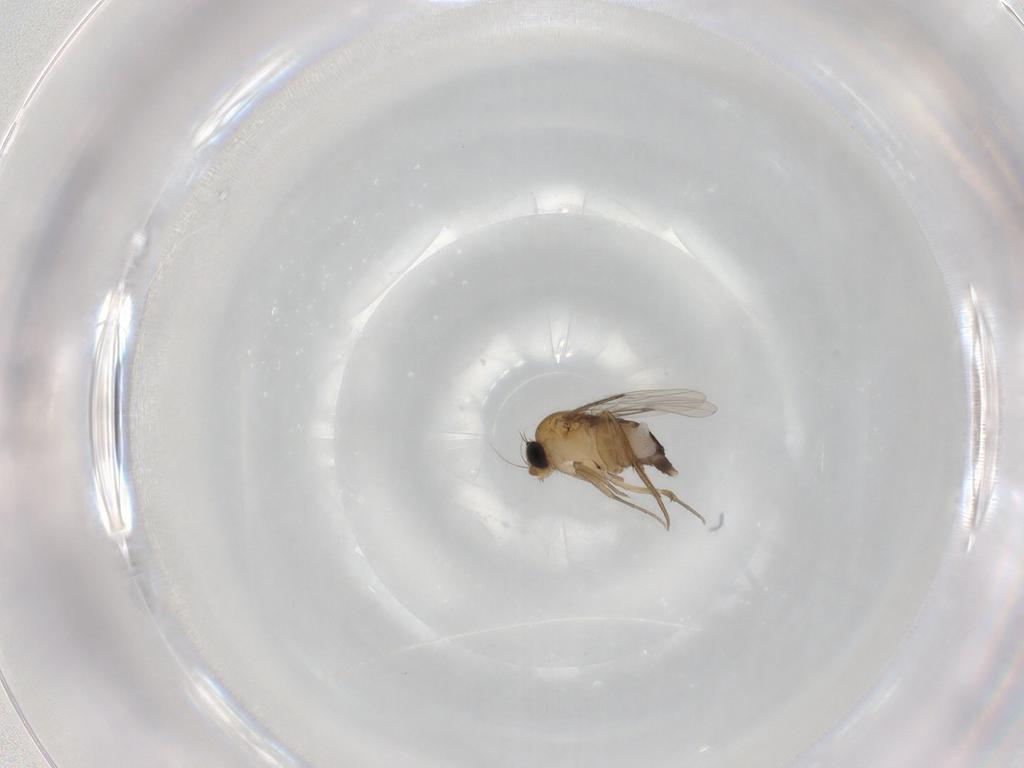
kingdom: Animalia
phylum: Arthropoda
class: Insecta
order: Diptera
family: Phoridae
